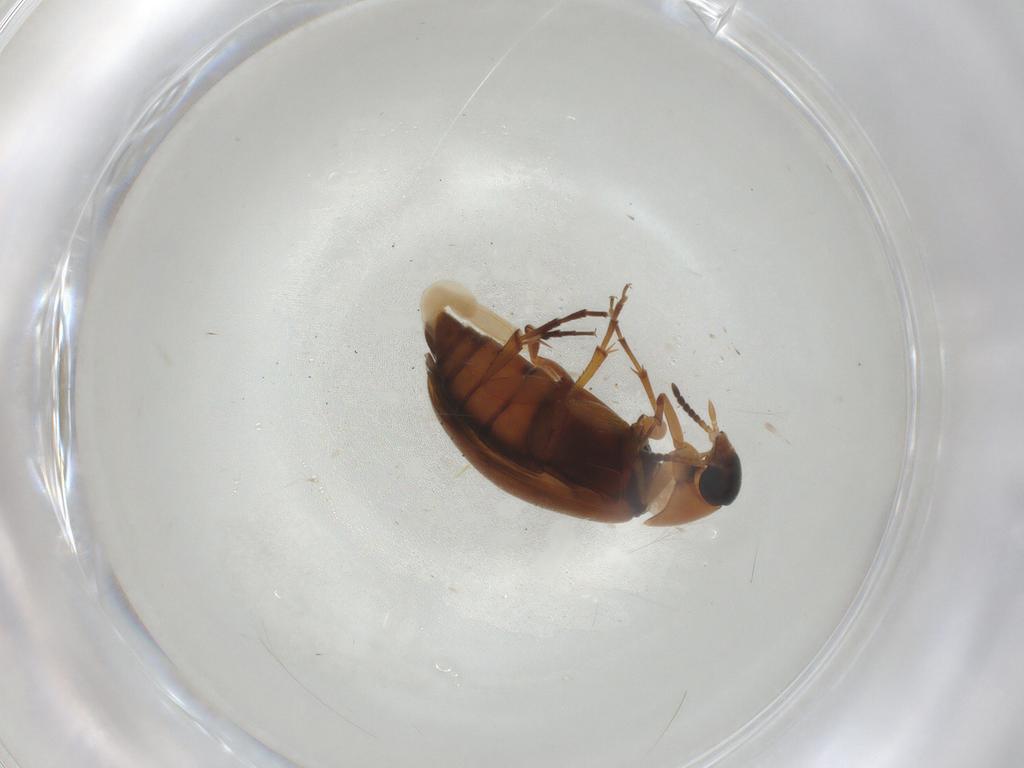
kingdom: Animalia
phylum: Arthropoda
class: Insecta
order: Coleoptera
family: Scraptiidae
